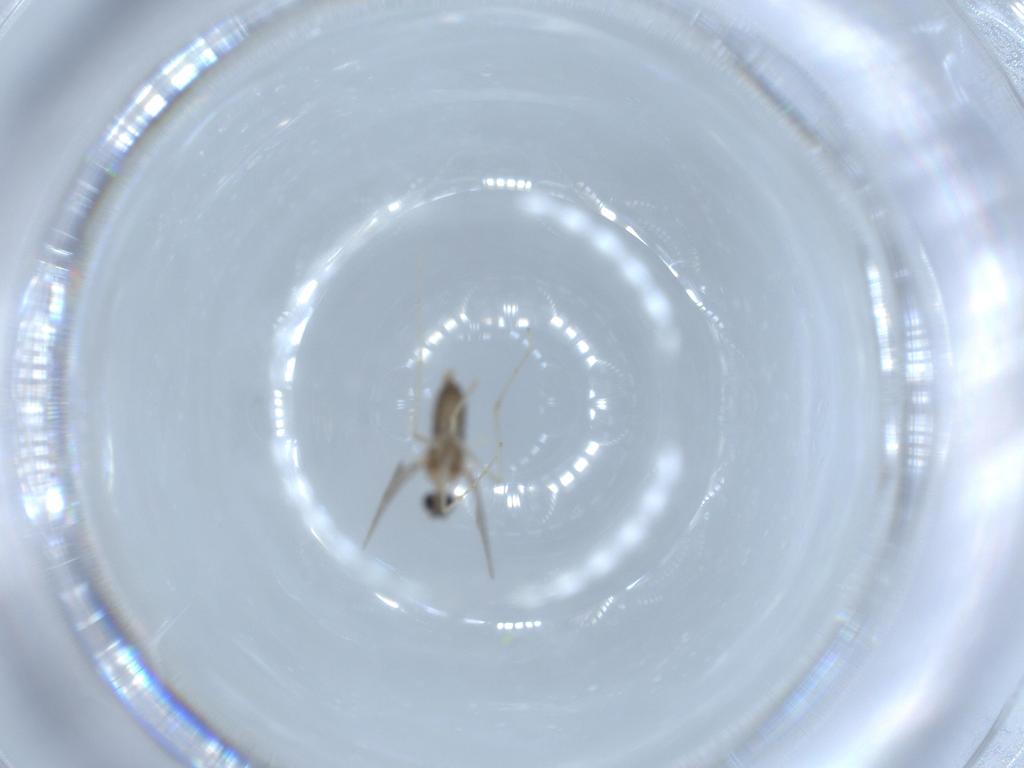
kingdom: Animalia
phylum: Arthropoda
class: Insecta
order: Diptera
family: Cecidomyiidae
